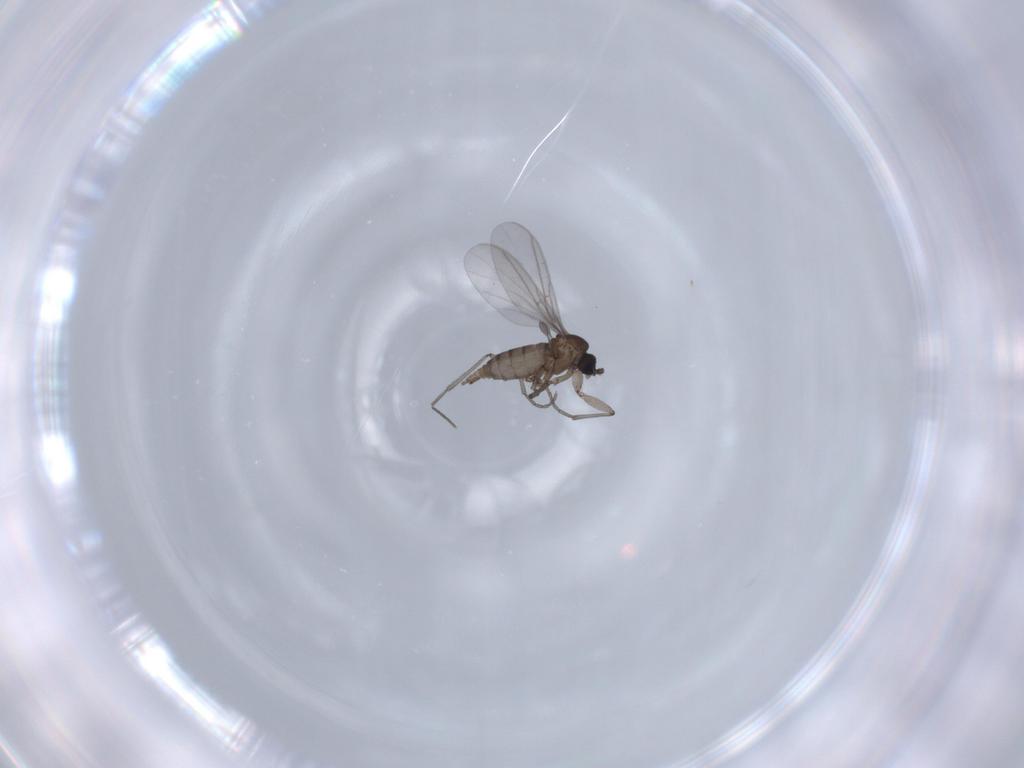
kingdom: Animalia
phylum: Arthropoda
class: Insecta
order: Diptera
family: Sciaridae
